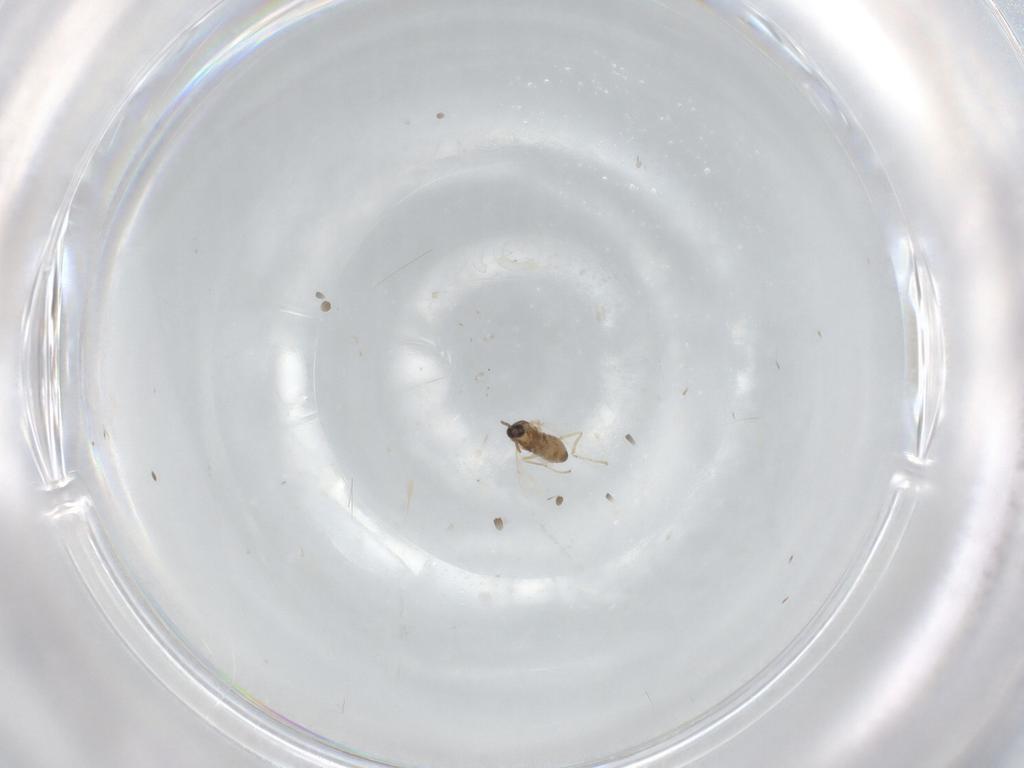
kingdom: Animalia
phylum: Arthropoda
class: Insecta
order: Diptera
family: Cecidomyiidae
